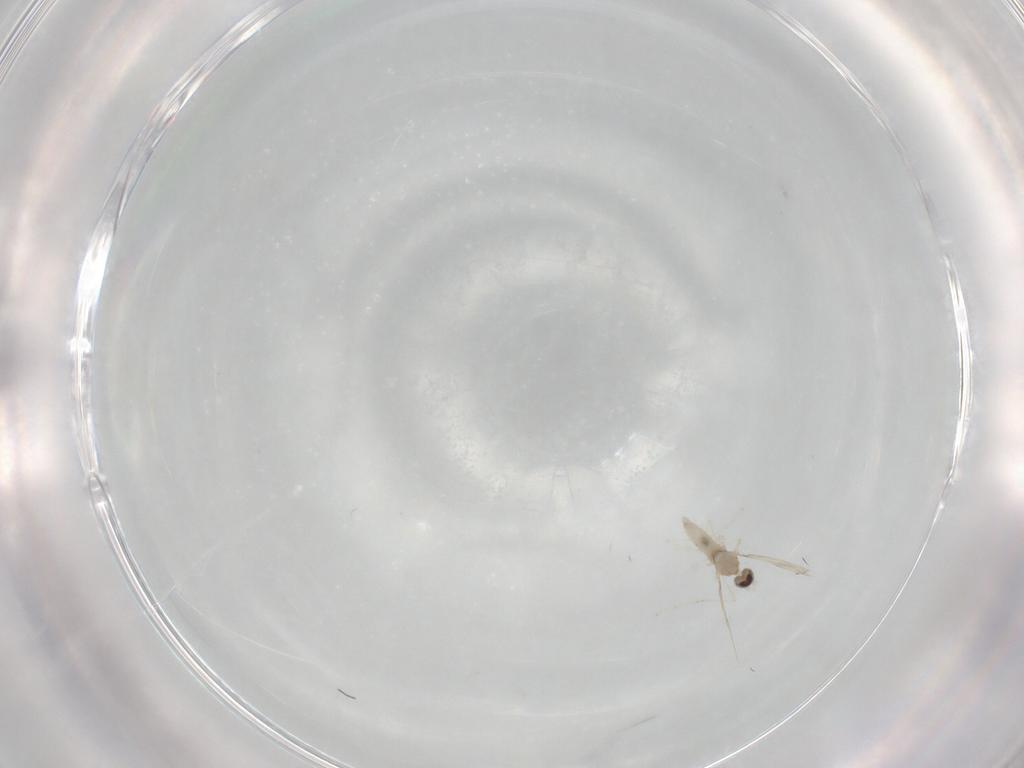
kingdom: Animalia
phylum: Arthropoda
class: Insecta
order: Diptera
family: Cecidomyiidae
